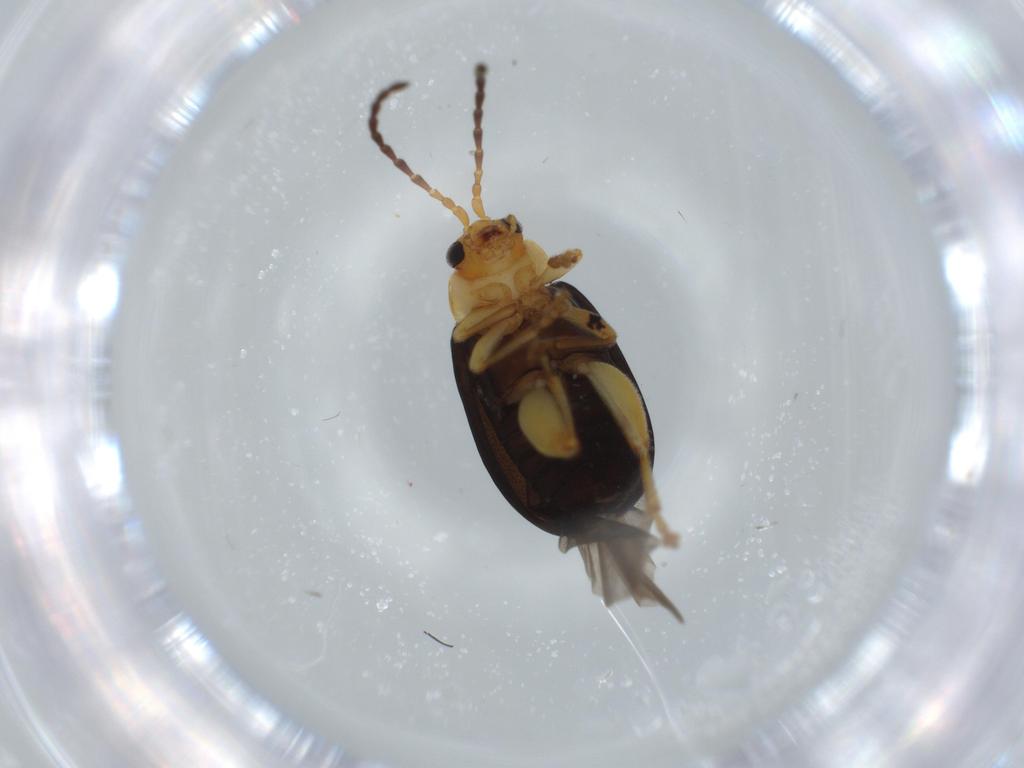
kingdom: Animalia
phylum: Arthropoda
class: Insecta
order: Coleoptera
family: Chrysomelidae
